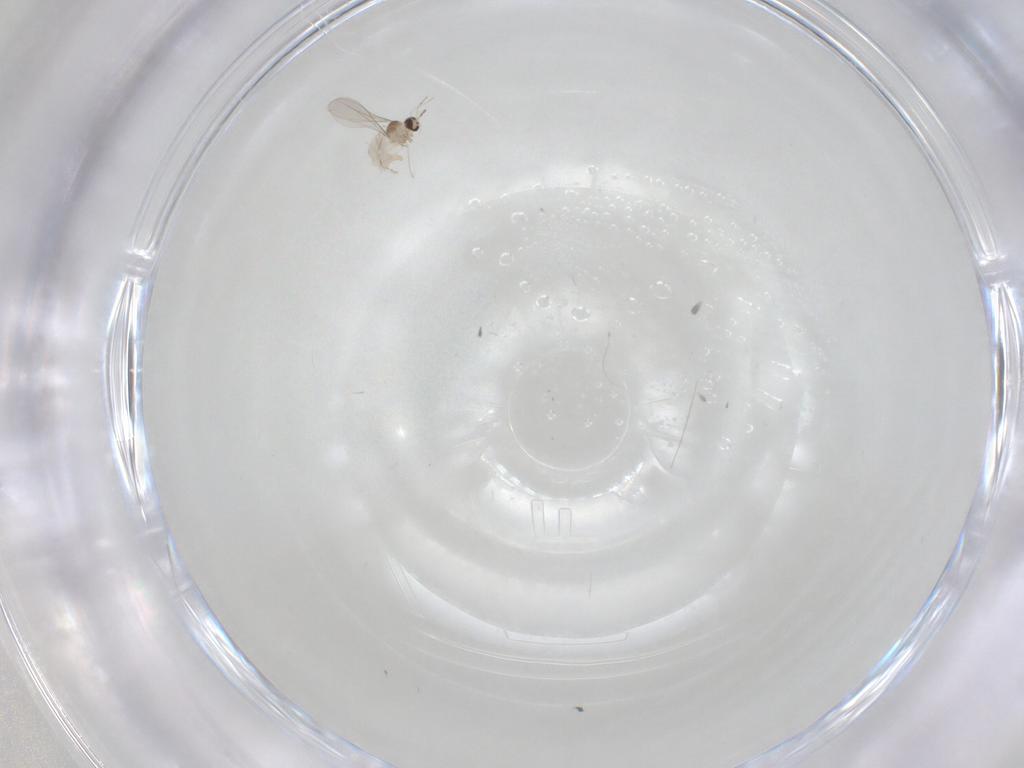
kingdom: Animalia
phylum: Arthropoda
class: Insecta
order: Diptera
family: Cecidomyiidae
